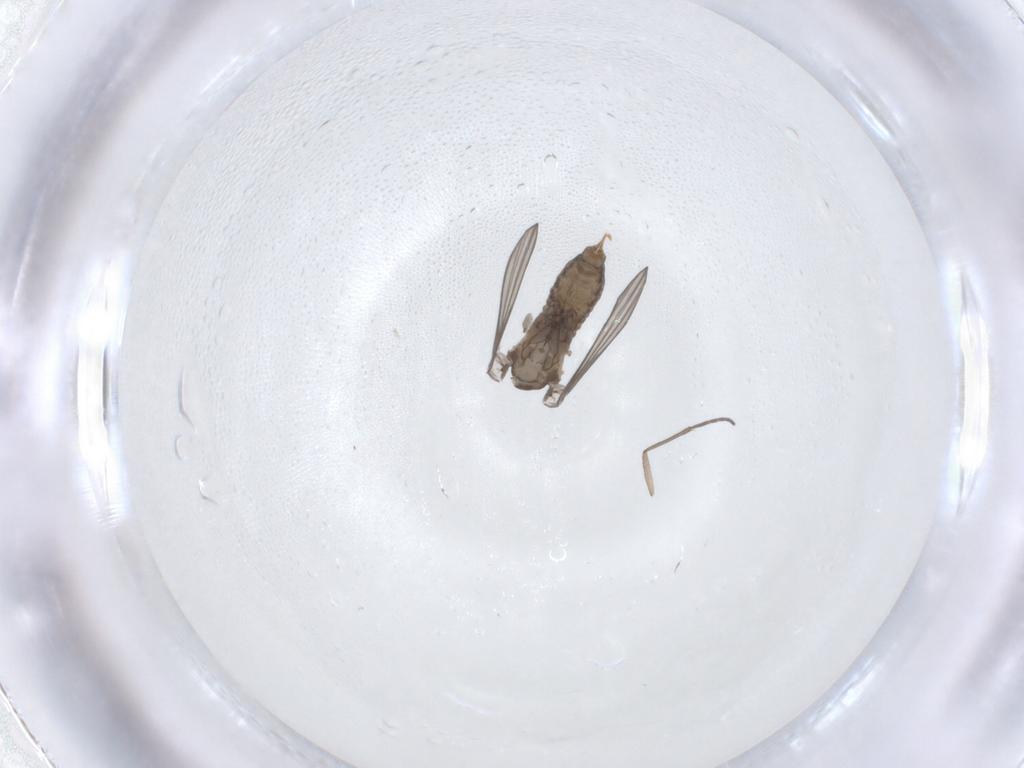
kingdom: Animalia
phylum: Arthropoda
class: Insecta
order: Diptera
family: Psychodidae
